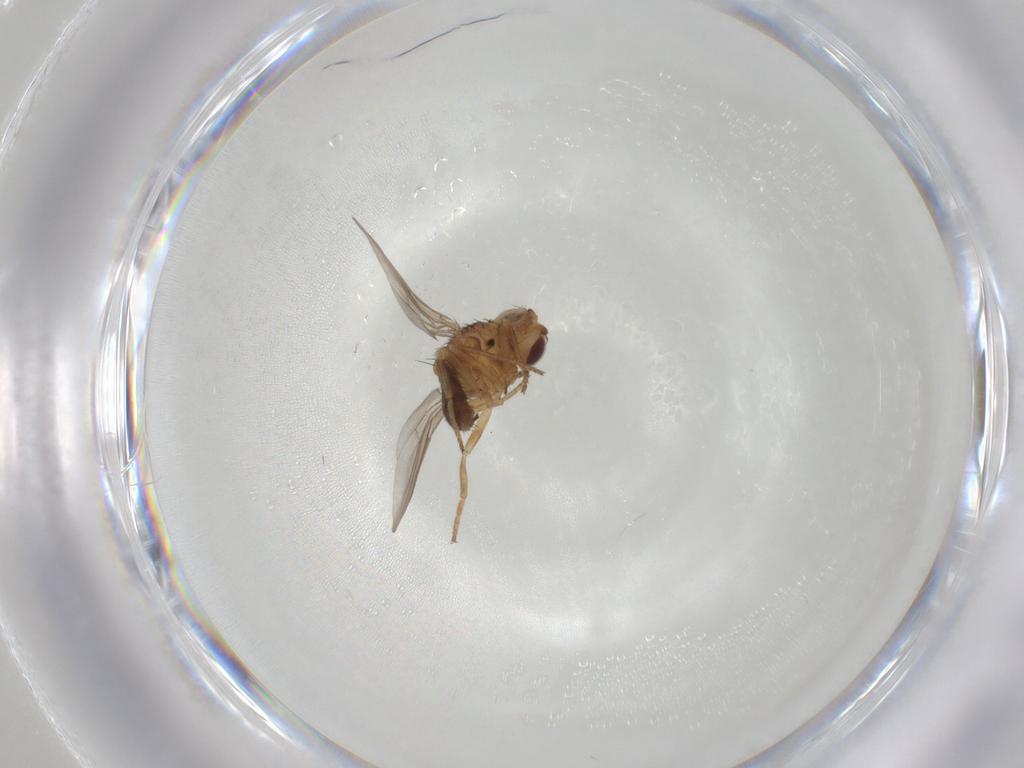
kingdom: Animalia
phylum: Arthropoda
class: Insecta
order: Diptera
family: Chloropidae
